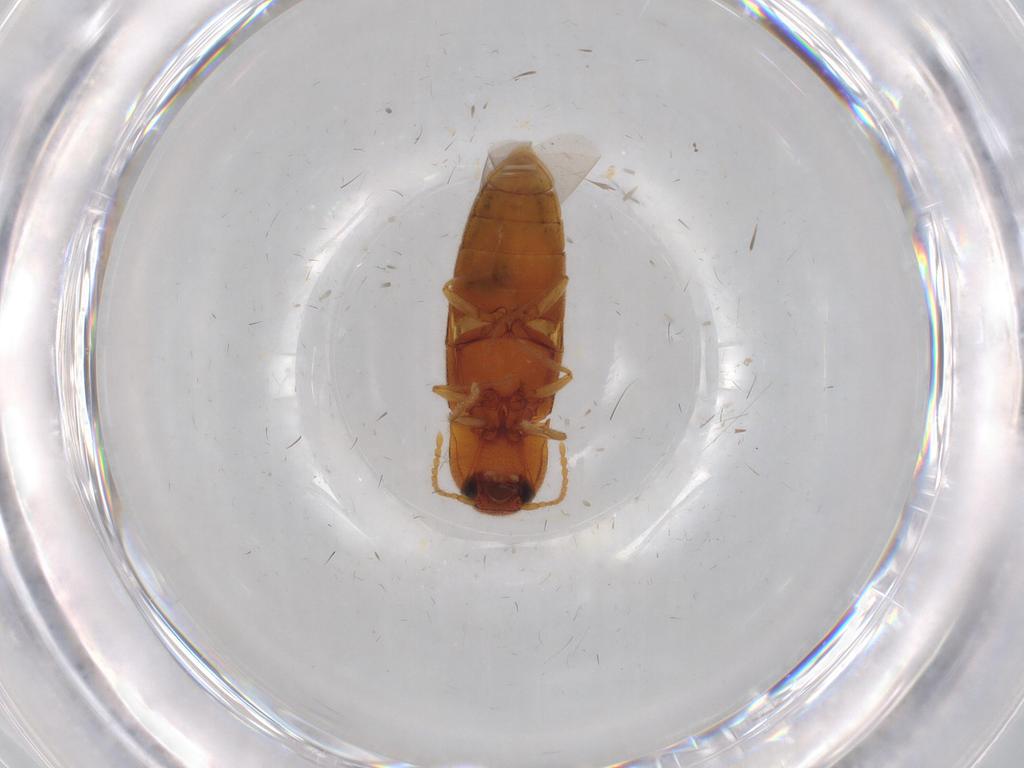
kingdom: Animalia
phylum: Arthropoda
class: Insecta
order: Coleoptera
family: Elateridae
